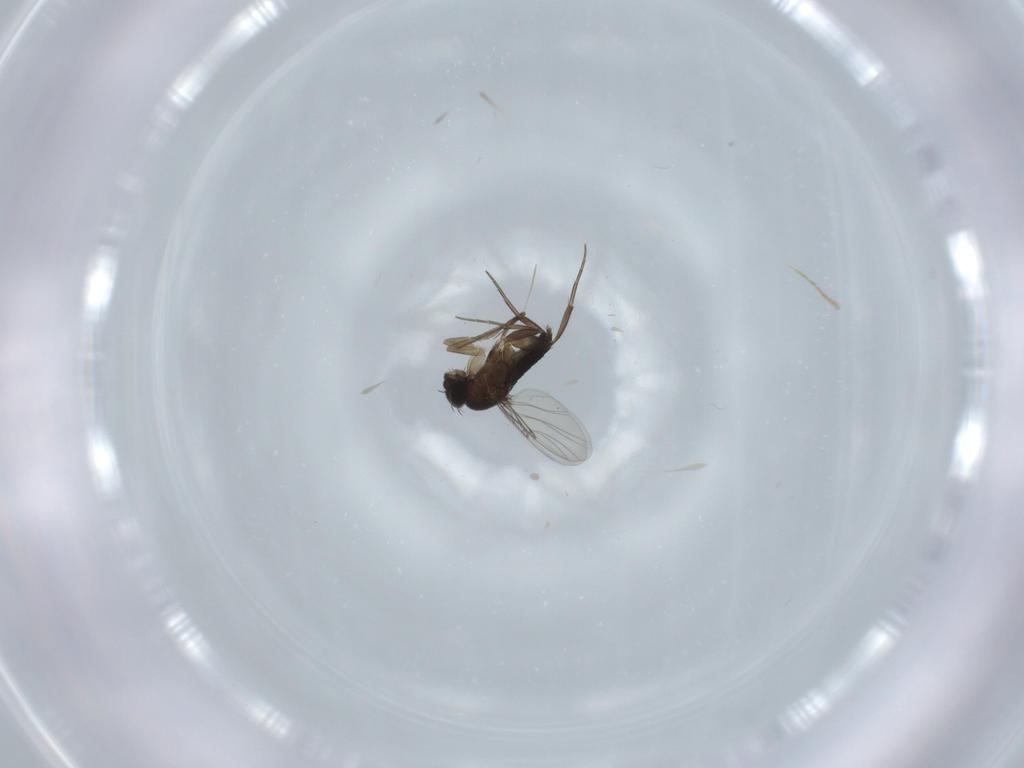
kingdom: Animalia
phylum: Arthropoda
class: Insecta
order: Diptera
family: Phoridae
